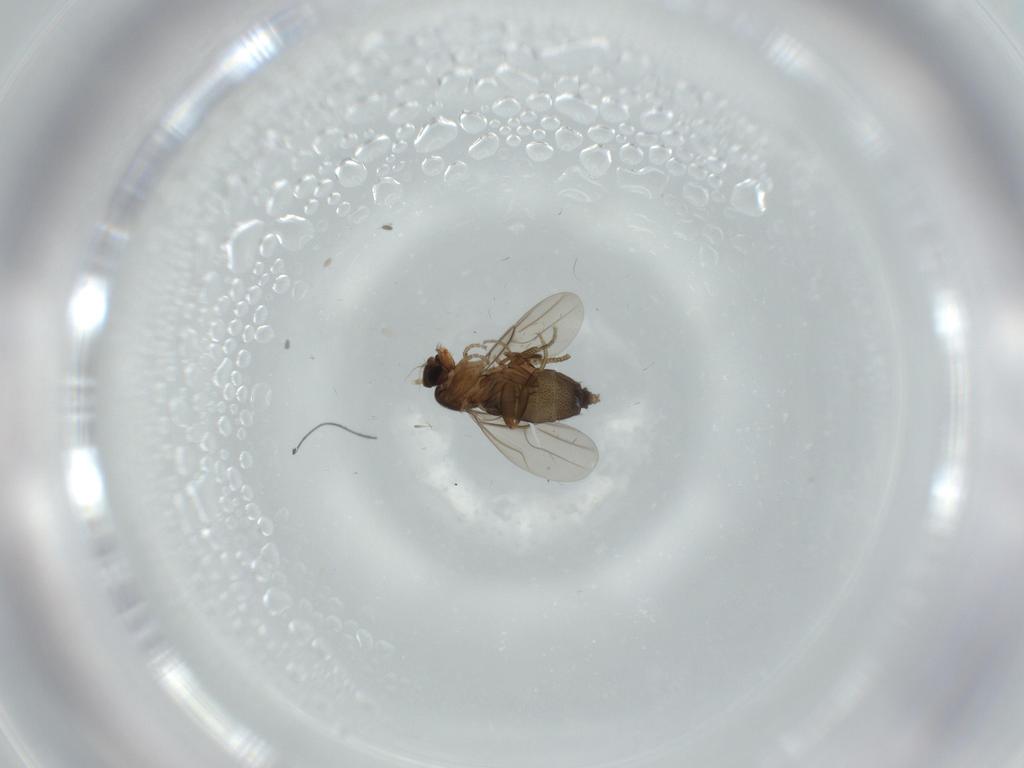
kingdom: Animalia
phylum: Arthropoda
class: Insecta
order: Diptera
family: Phoridae
